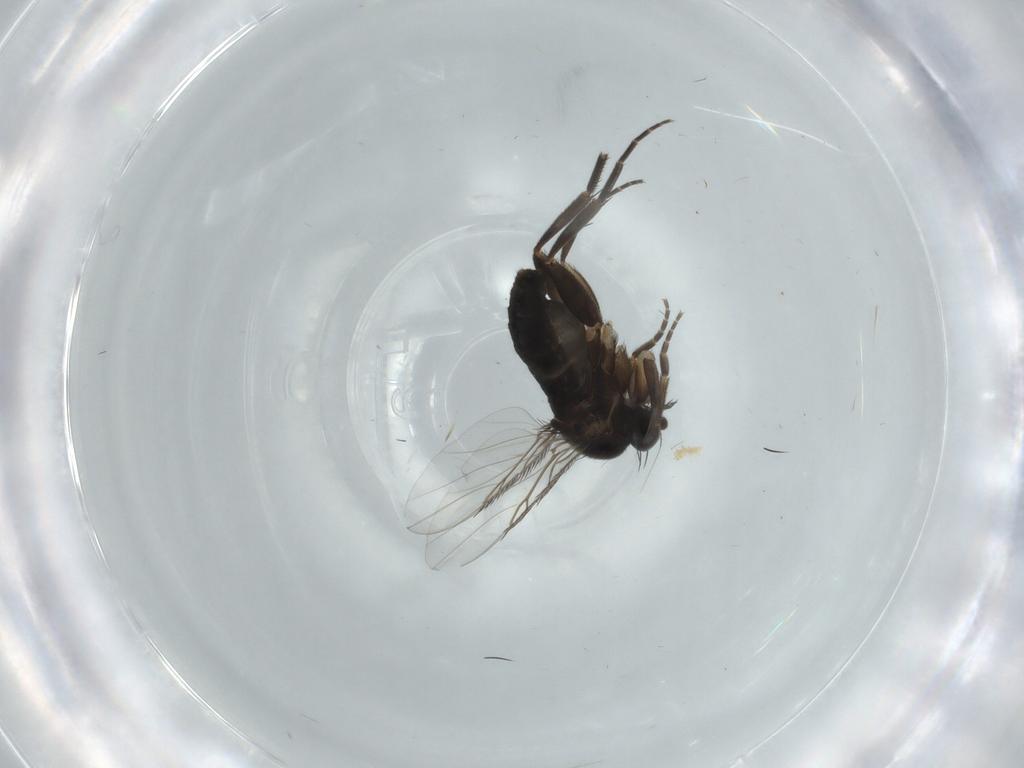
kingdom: Animalia
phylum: Arthropoda
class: Insecta
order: Diptera
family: Phoridae
